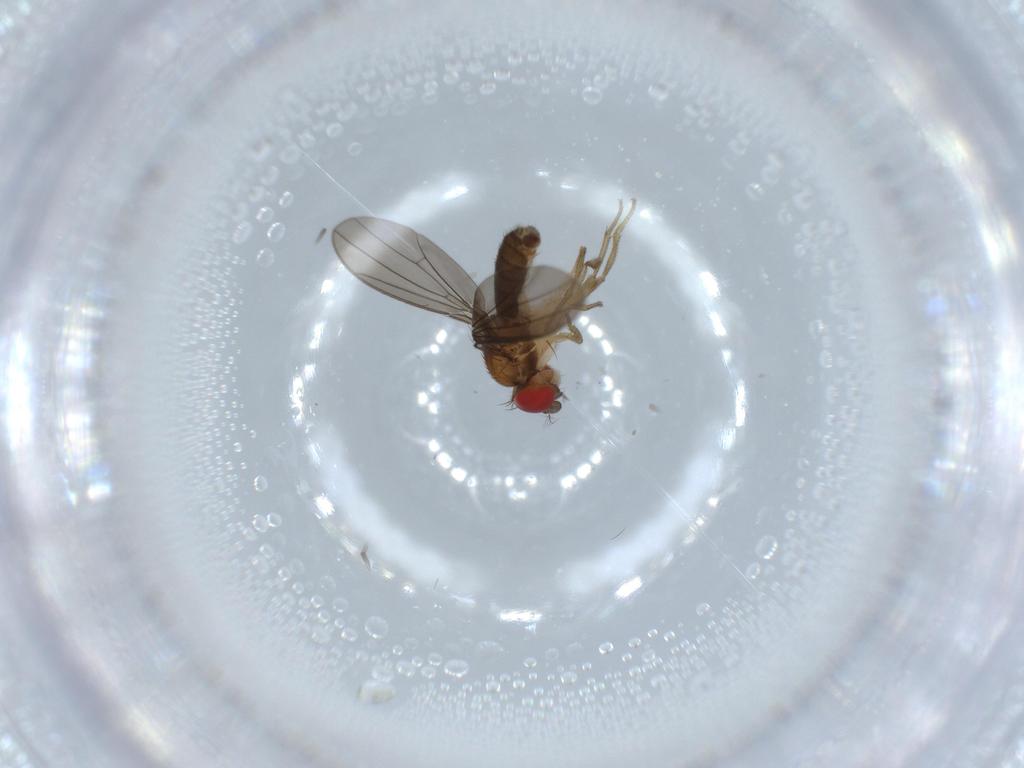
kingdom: Animalia
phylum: Arthropoda
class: Insecta
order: Diptera
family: Drosophilidae
